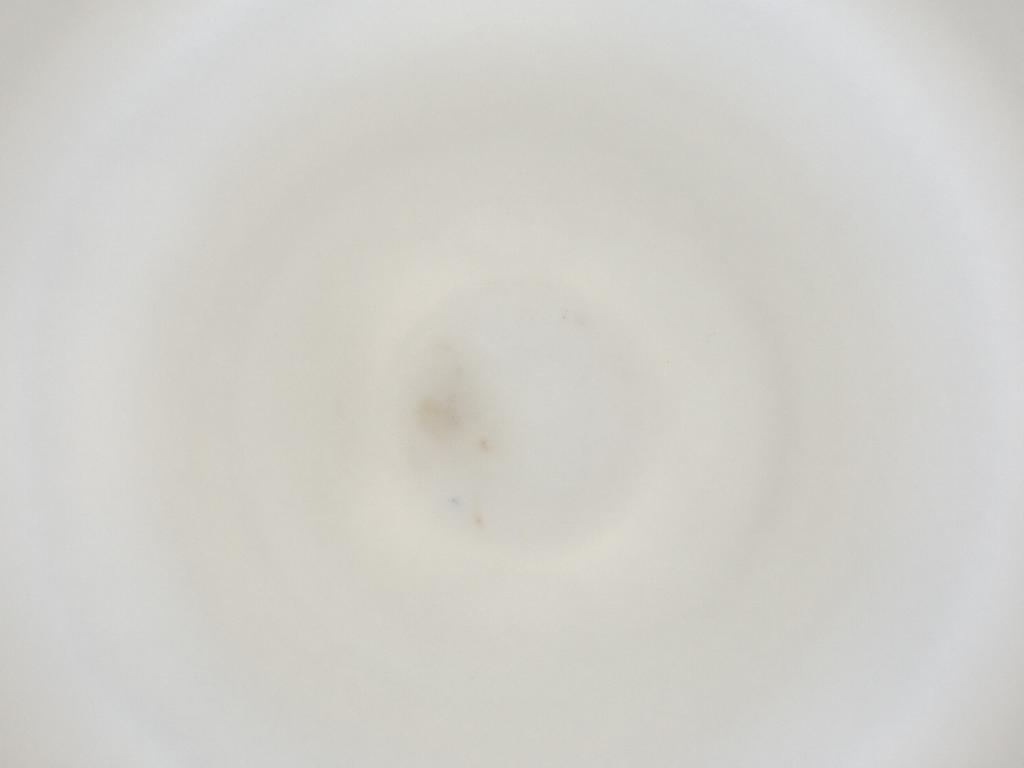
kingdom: Animalia
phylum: Arthropoda
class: Insecta
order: Diptera
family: Cecidomyiidae
